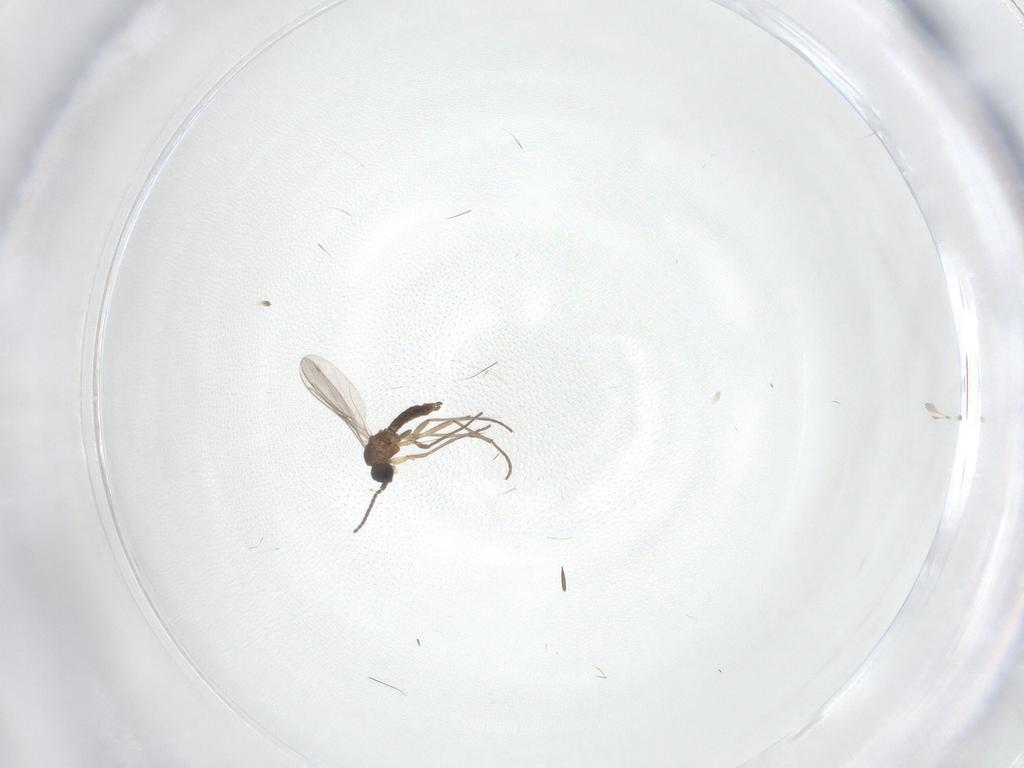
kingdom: Animalia
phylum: Arthropoda
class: Insecta
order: Diptera
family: Sciaridae
